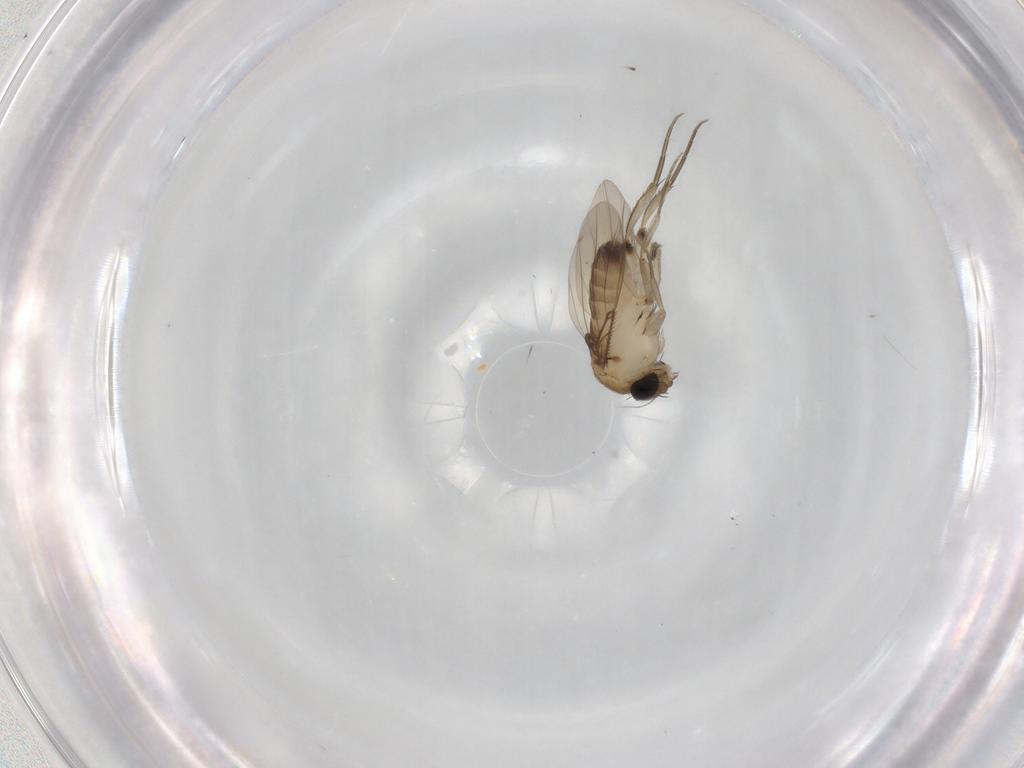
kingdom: Animalia
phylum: Arthropoda
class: Insecta
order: Diptera
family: Phoridae
